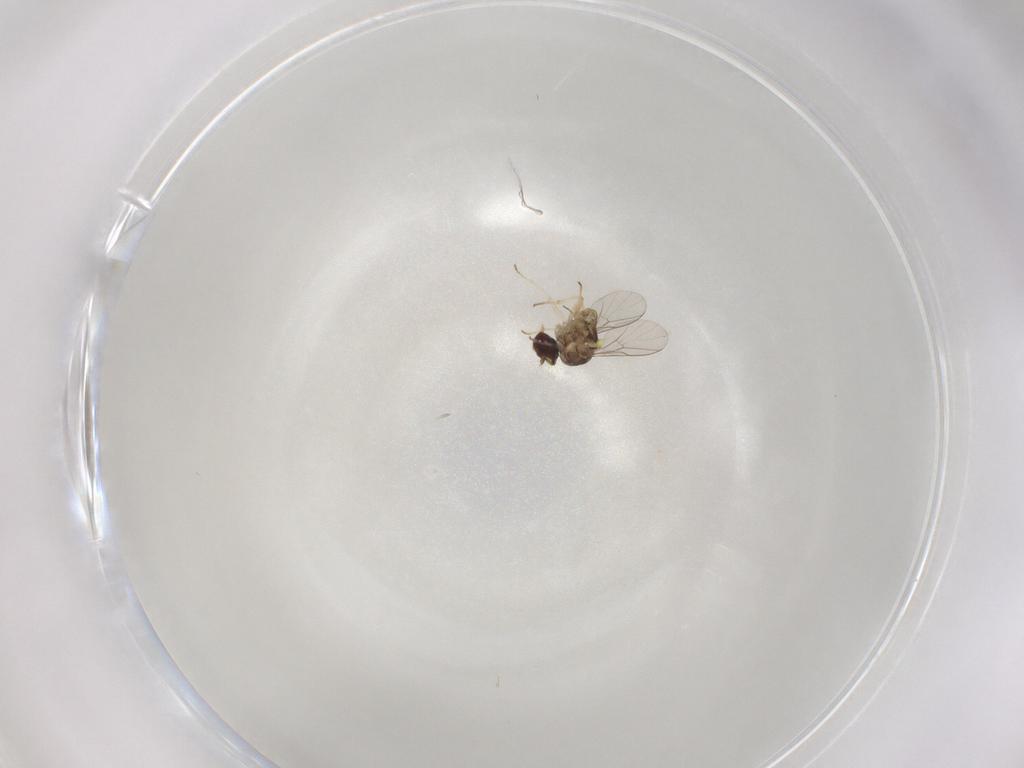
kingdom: Animalia
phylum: Arthropoda
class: Insecta
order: Diptera
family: Bombyliidae
